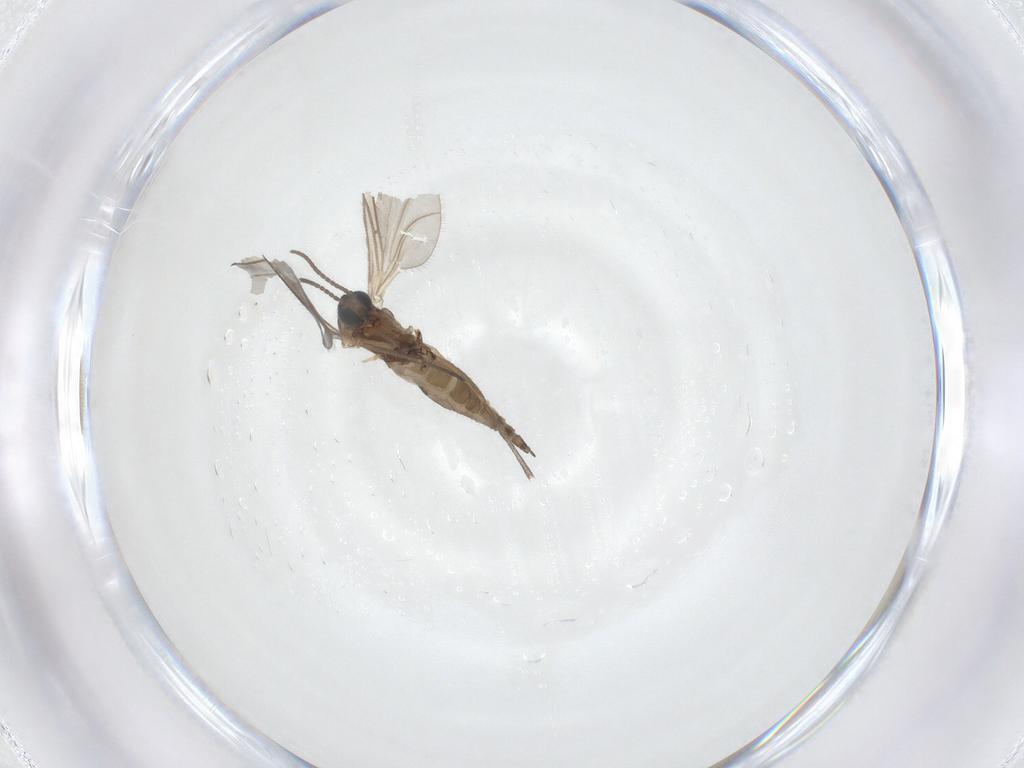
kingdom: Animalia
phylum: Arthropoda
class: Insecta
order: Diptera
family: Sciaridae
